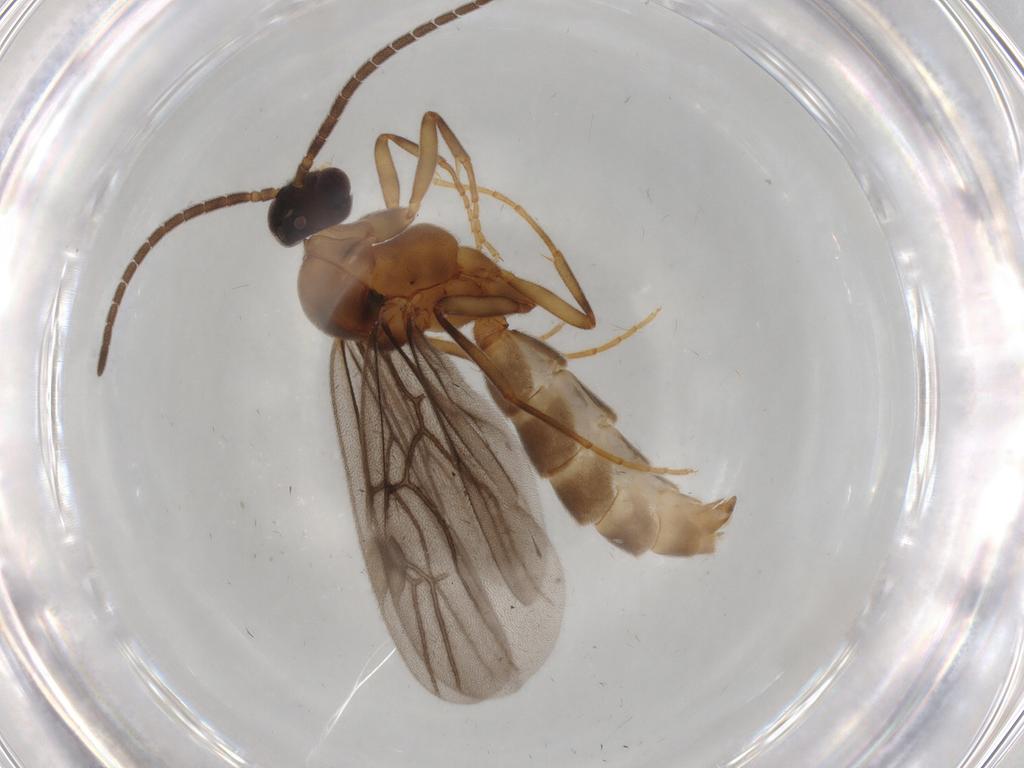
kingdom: Animalia
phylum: Arthropoda
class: Insecta
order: Hymenoptera
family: Formicidae
